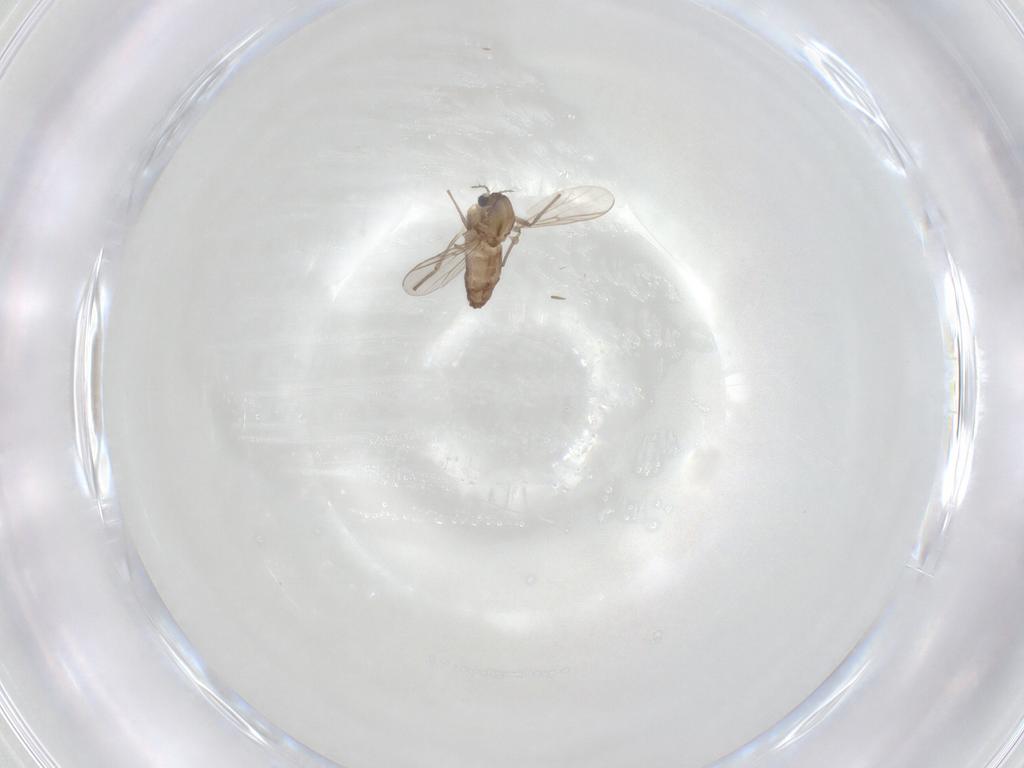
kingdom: Animalia
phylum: Arthropoda
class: Insecta
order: Diptera
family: Chironomidae
